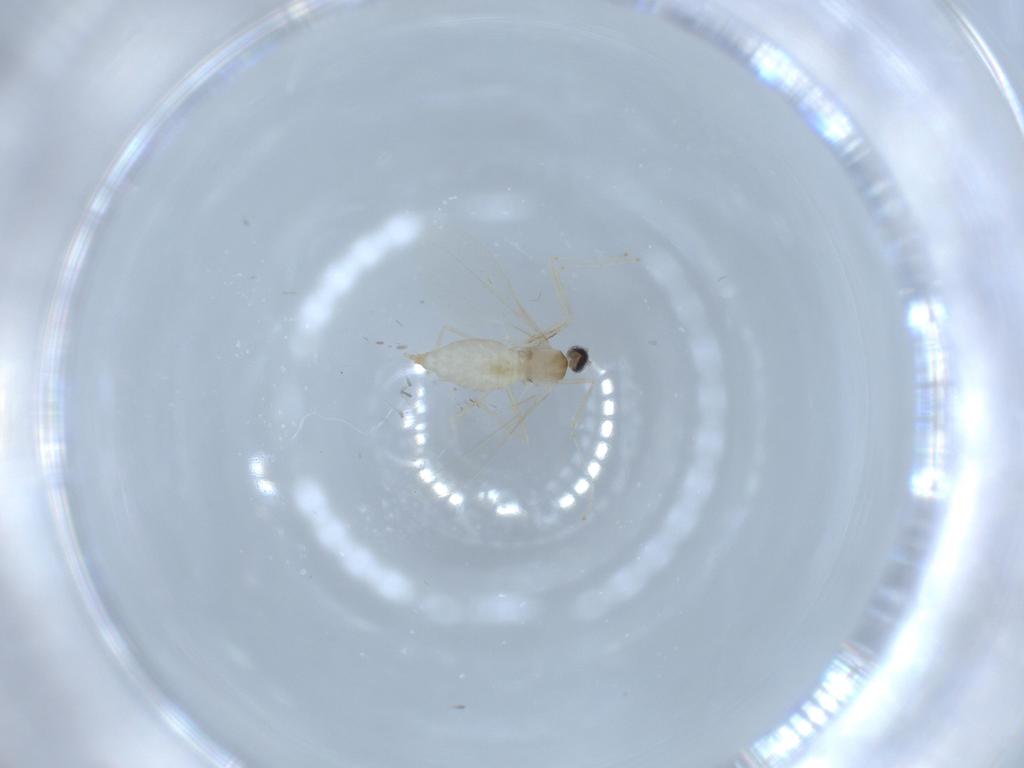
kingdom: Animalia
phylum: Arthropoda
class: Insecta
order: Diptera
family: Cecidomyiidae
